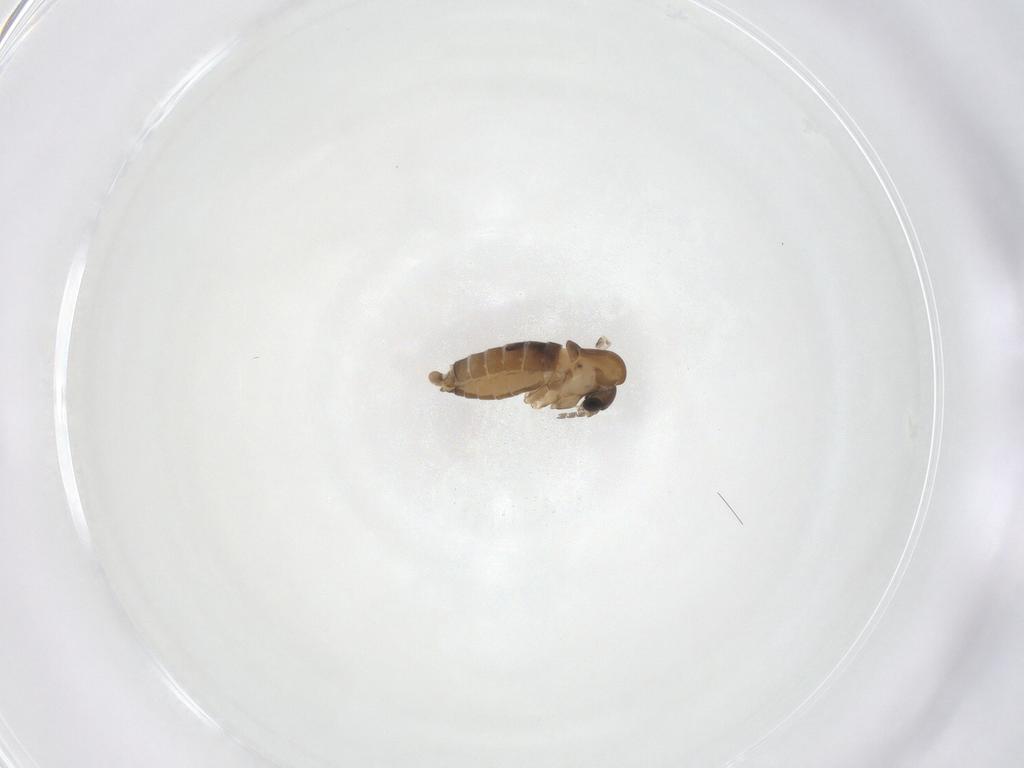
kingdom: Animalia
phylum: Arthropoda
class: Insecta
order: Diptera
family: Psychodidae
